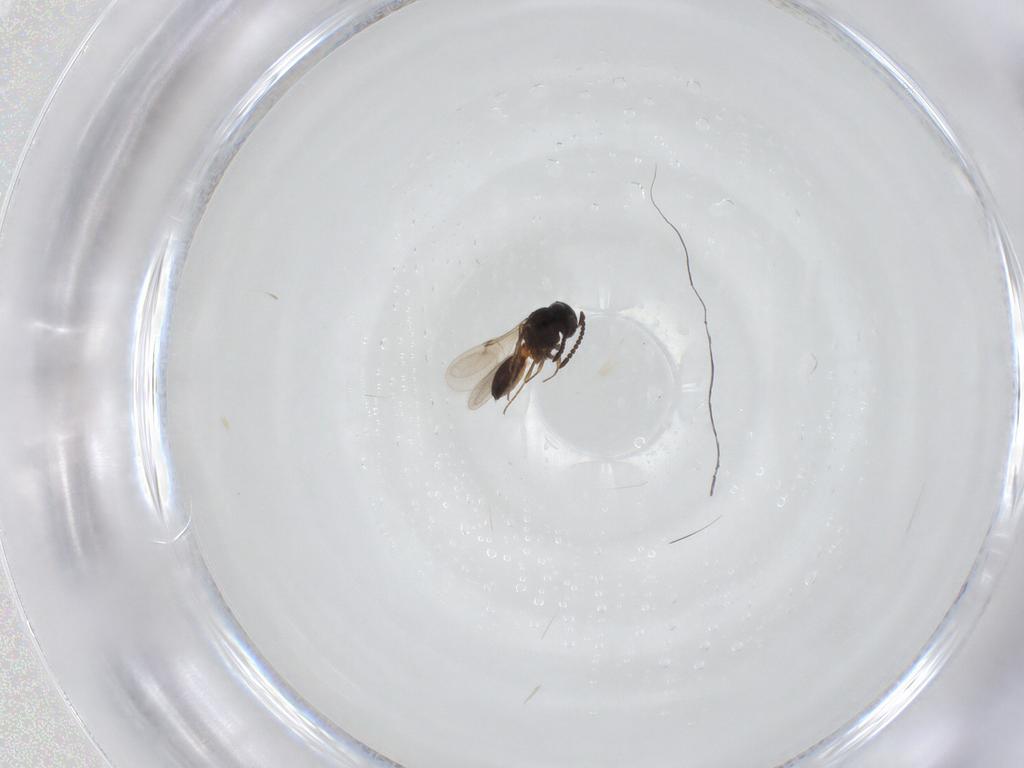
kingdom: Animalia
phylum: Arthropoda
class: Insecta
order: Hymenoptera
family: Scelionidae
